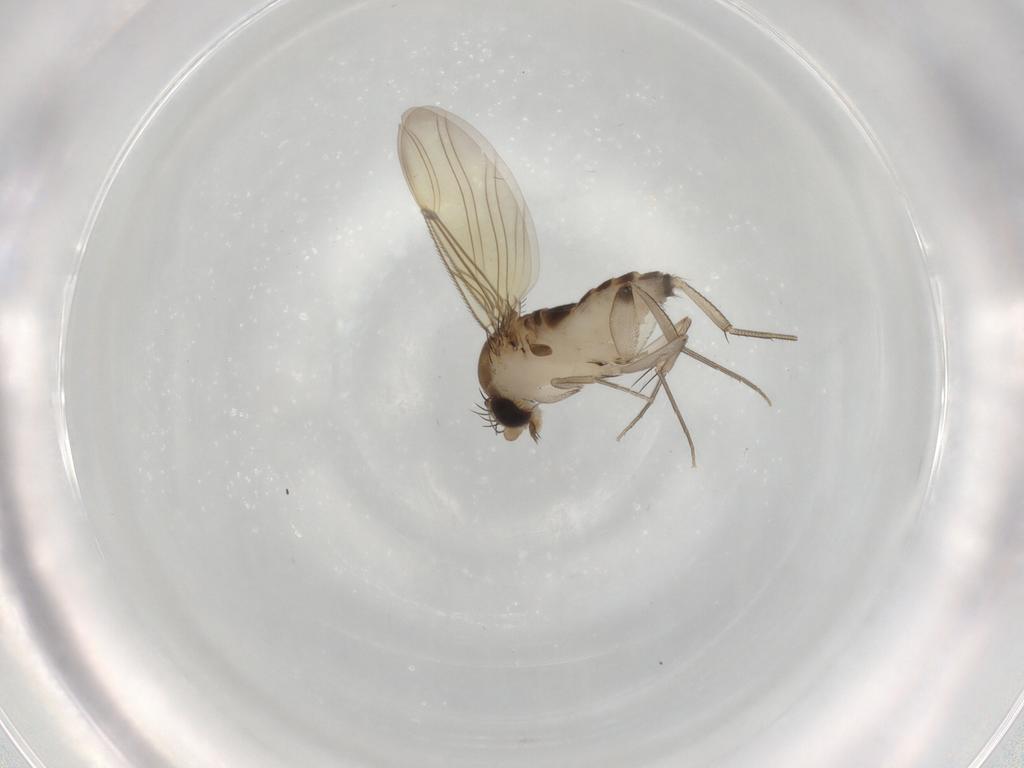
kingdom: Animalia
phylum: Arthropoda
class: Insecta
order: Diptera
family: Phoridae
